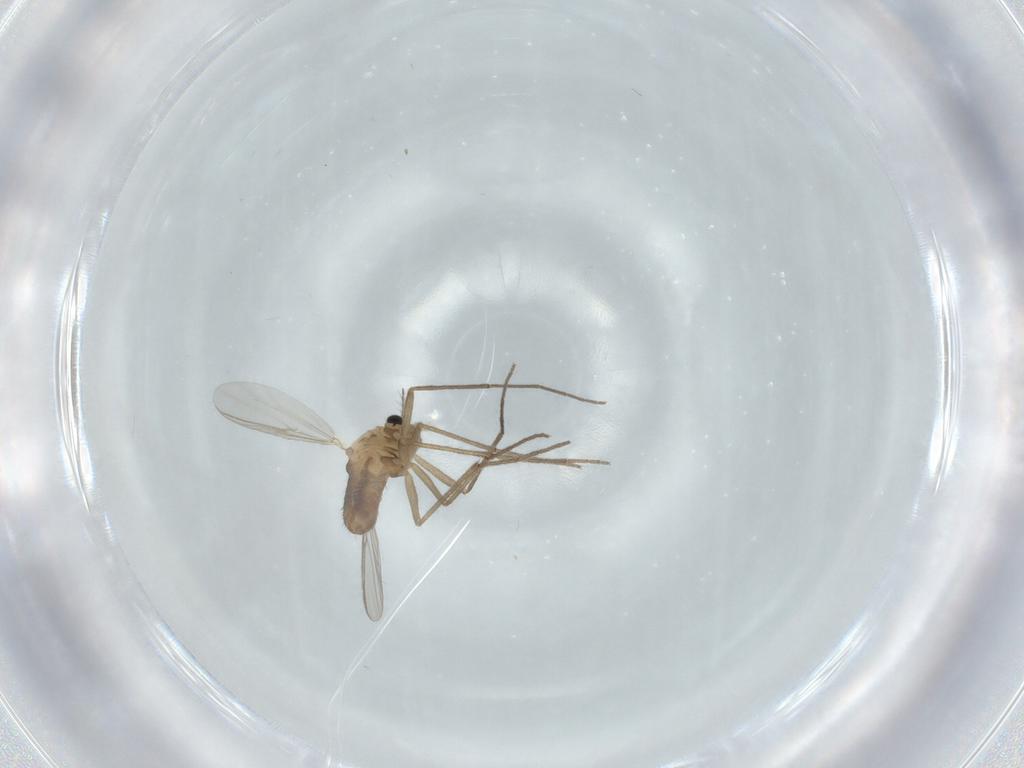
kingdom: Animalia
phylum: Arthropoda
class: Insecta
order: Diptera
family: Chironomidae
